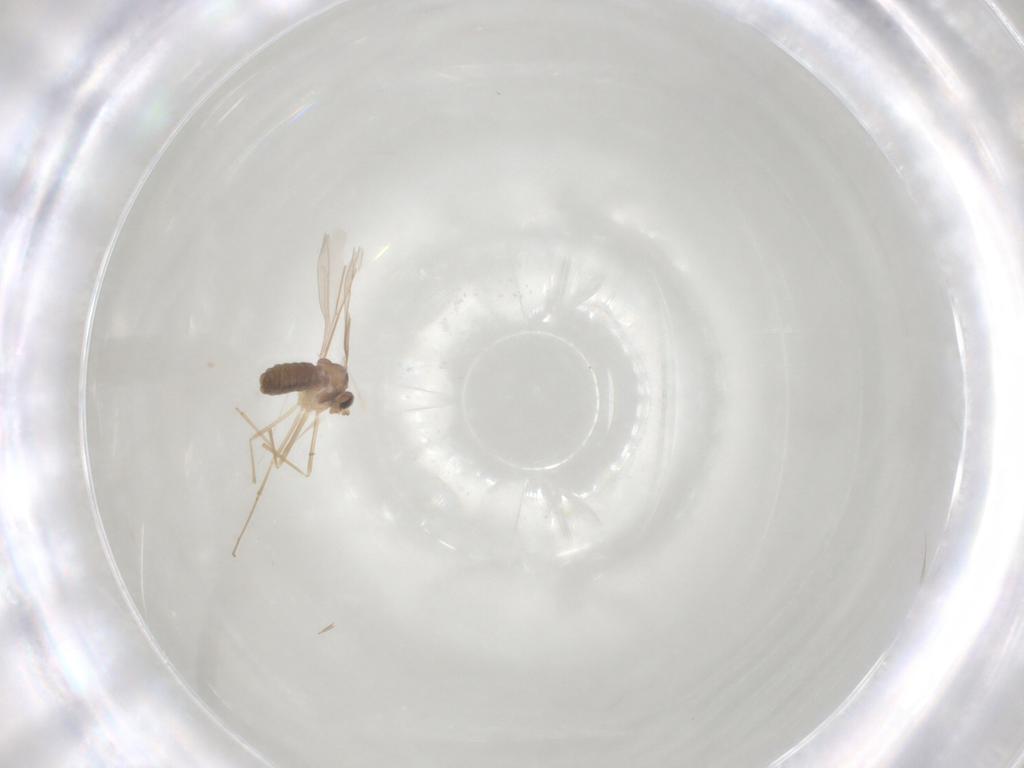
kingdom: Animalia
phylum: Arthropoda
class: Insecta
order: Diptera
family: Cecidomyiidae
